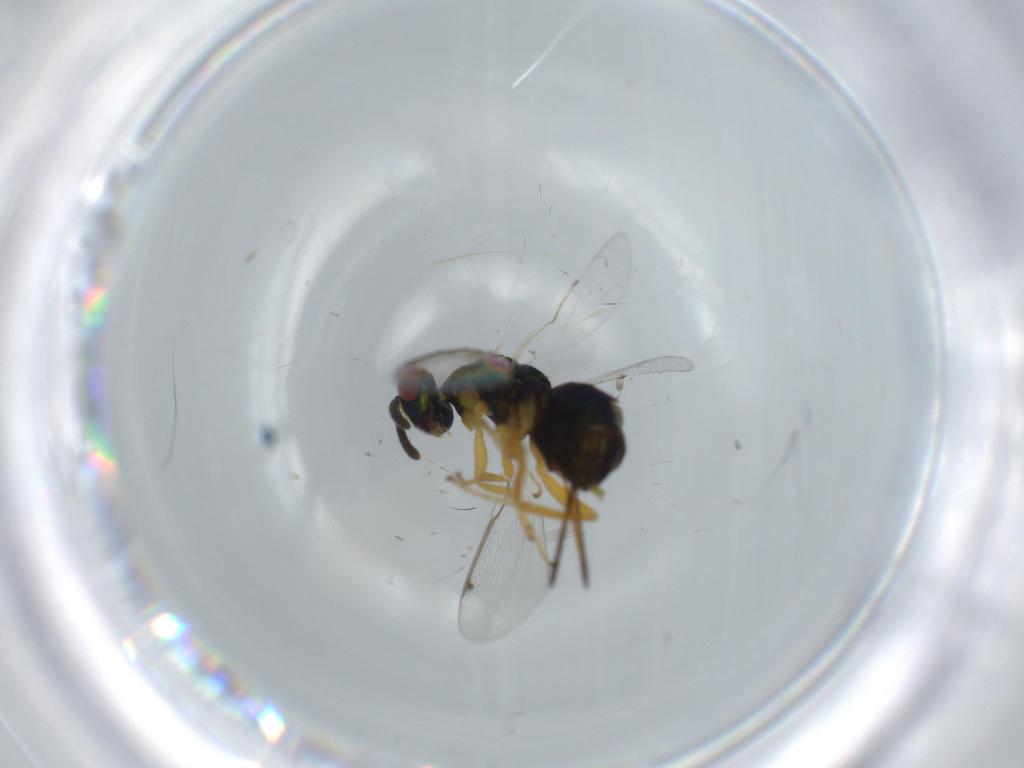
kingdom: Animalia
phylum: Arthropoda
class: Insecta
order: Hymenoptera
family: Torymidae
